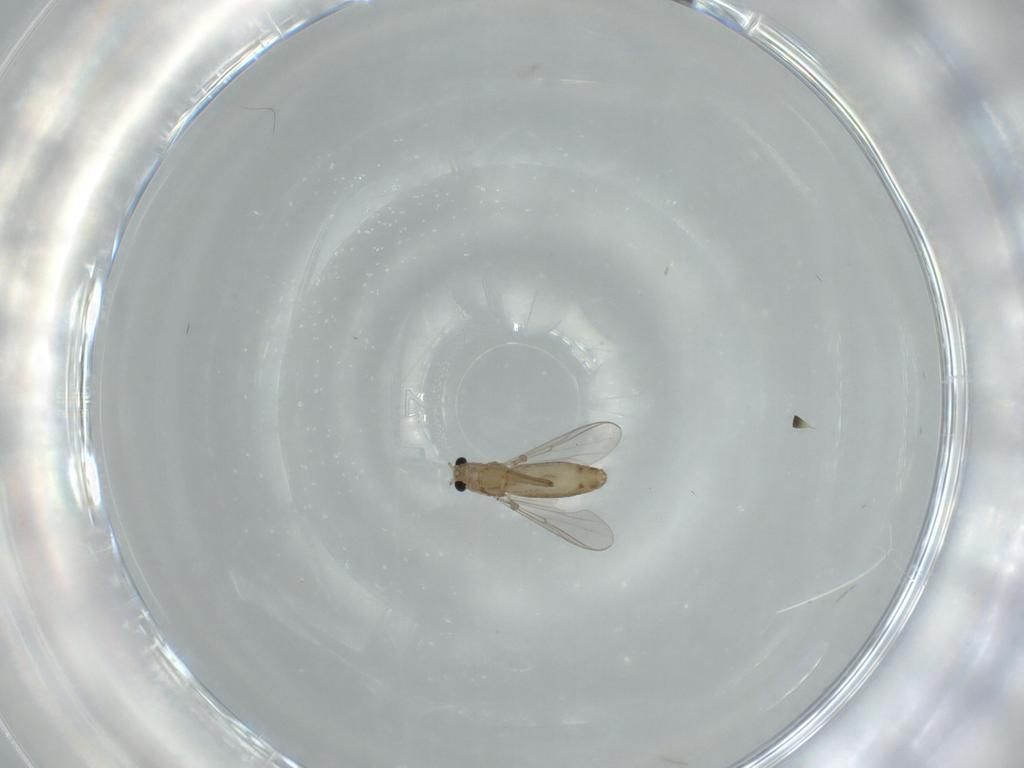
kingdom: Animalia
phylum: Arthropoda
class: Insecta
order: Diptera
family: Chironomidae
